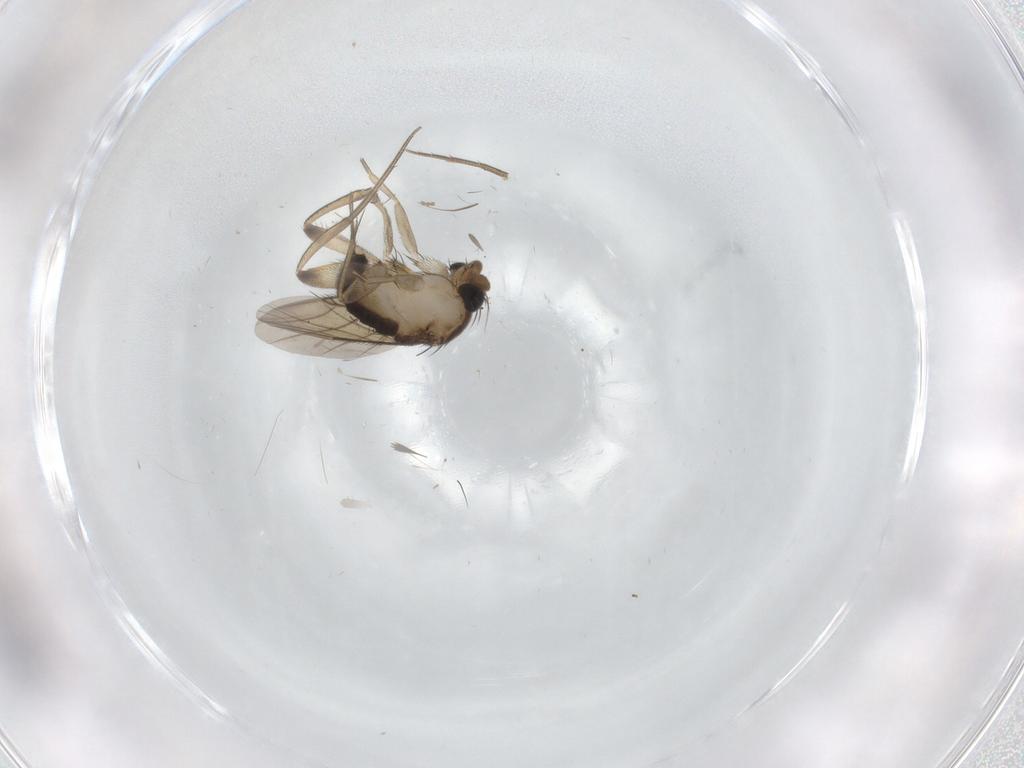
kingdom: Animalia
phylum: Arthropoda
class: Insecta
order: Diptera
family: Phoridae
